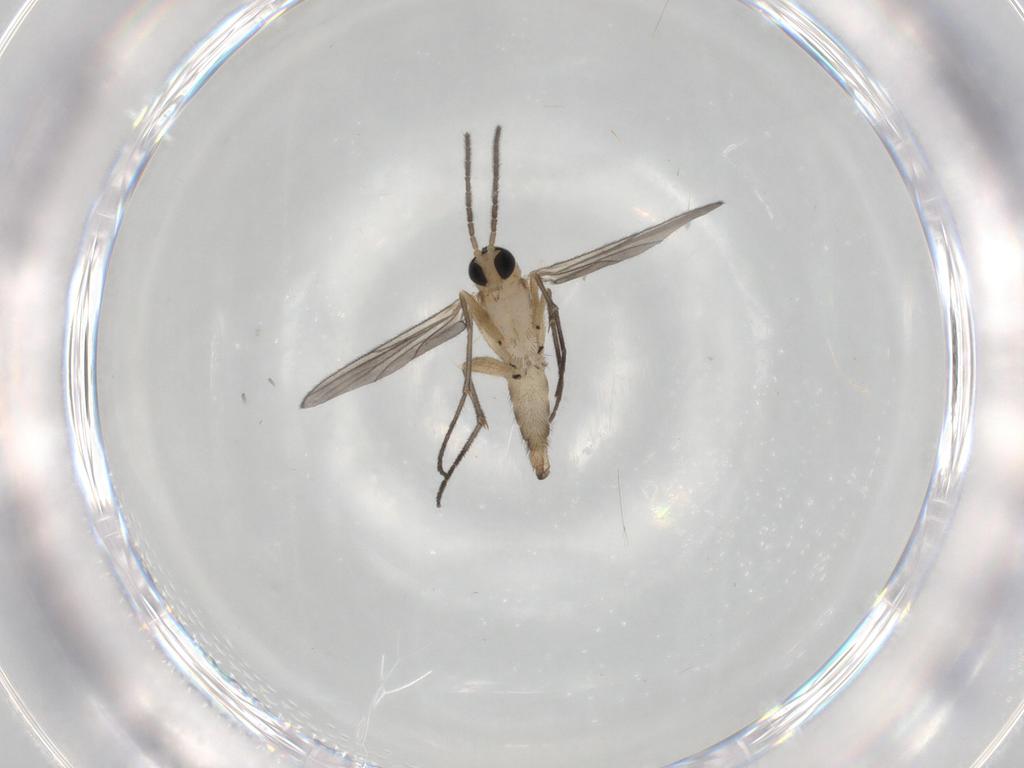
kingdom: Animalia
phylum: Arthropoda
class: Insecta
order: Diptera
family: Sciaridae
